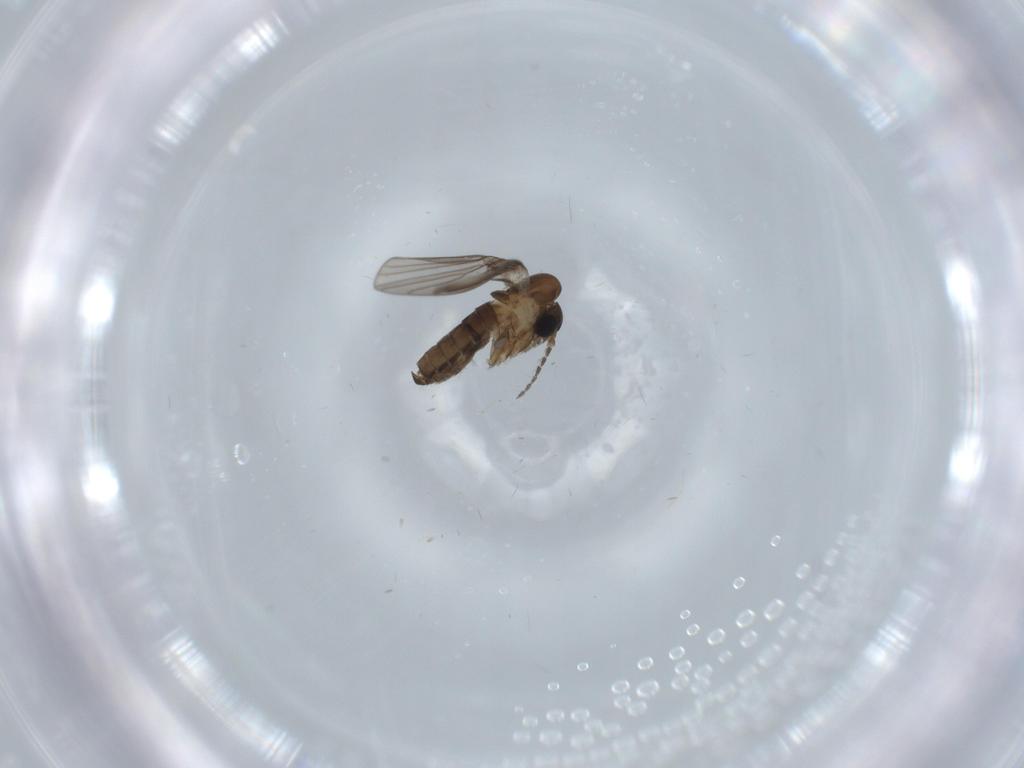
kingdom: Animalia
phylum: Arthropoda
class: Insecta
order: Diptera
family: Psychodidae
